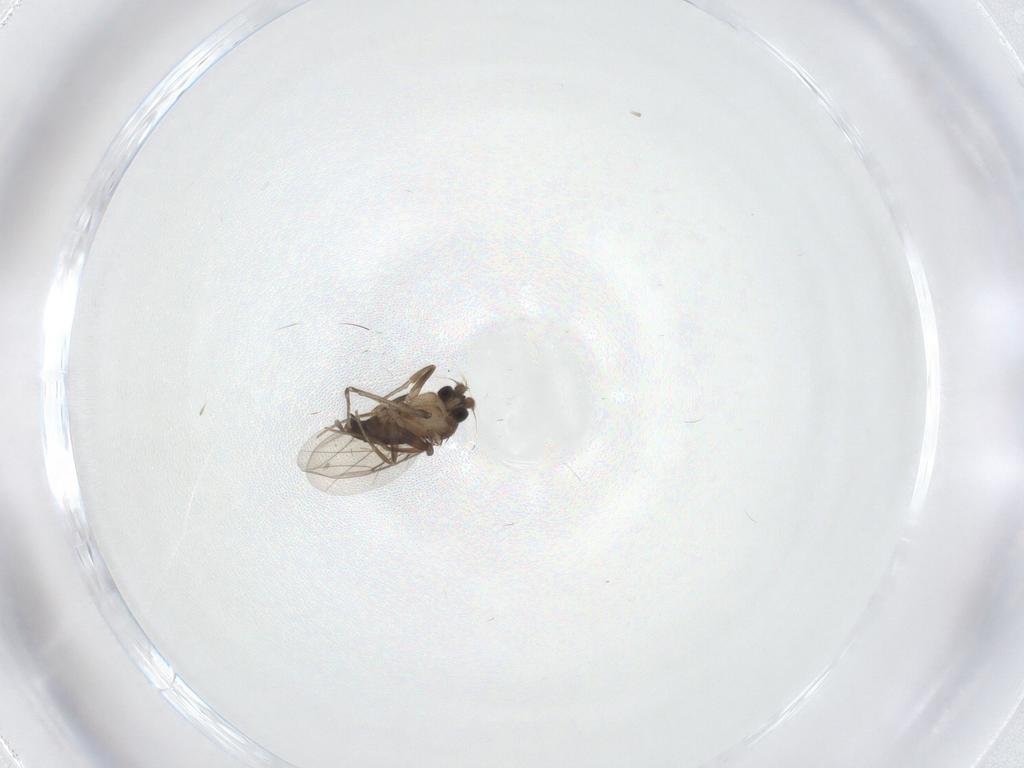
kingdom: Animalia
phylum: Arthropoda
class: Insecta
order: Diptera
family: Phoridae
